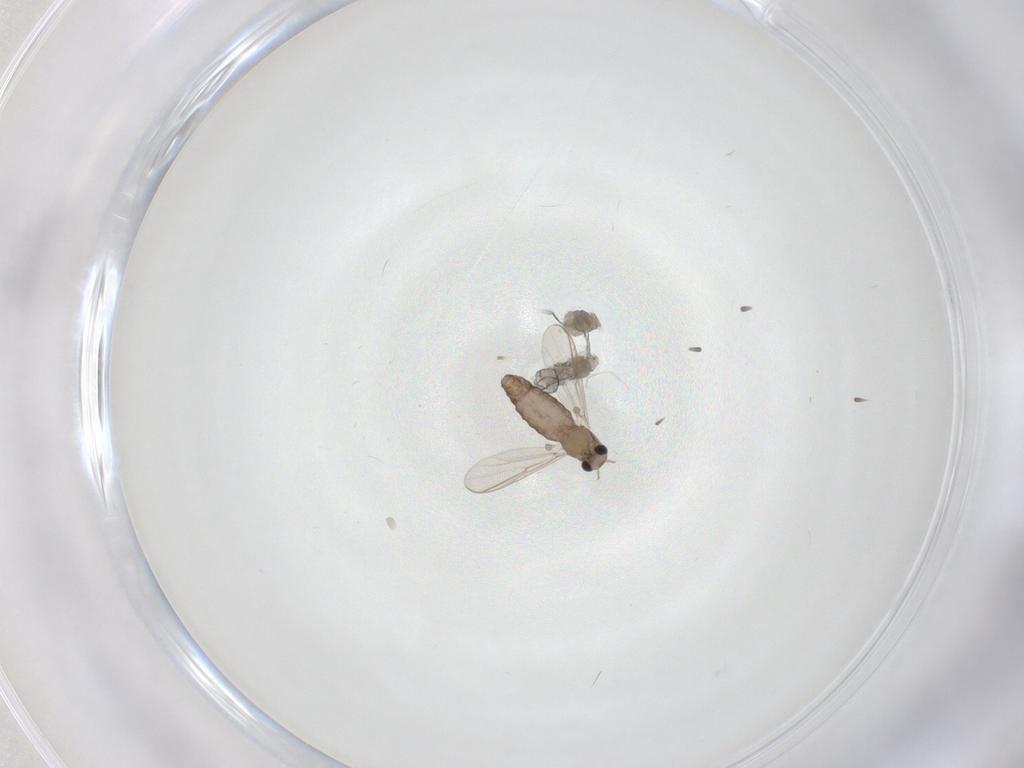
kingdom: Animalia
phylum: Arthropoda
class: Insecta
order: Diptera
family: Chironomidae
